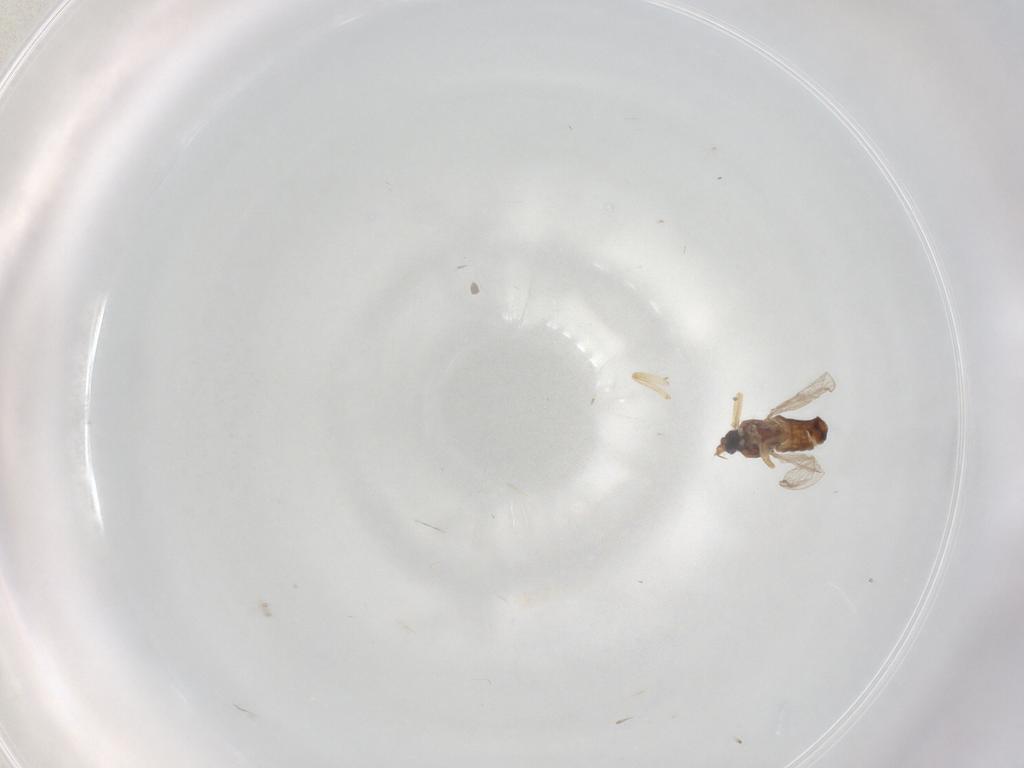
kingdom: Animalia
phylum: Arthropoda
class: Insecta
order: Diptera
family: Ceratopogonidae
